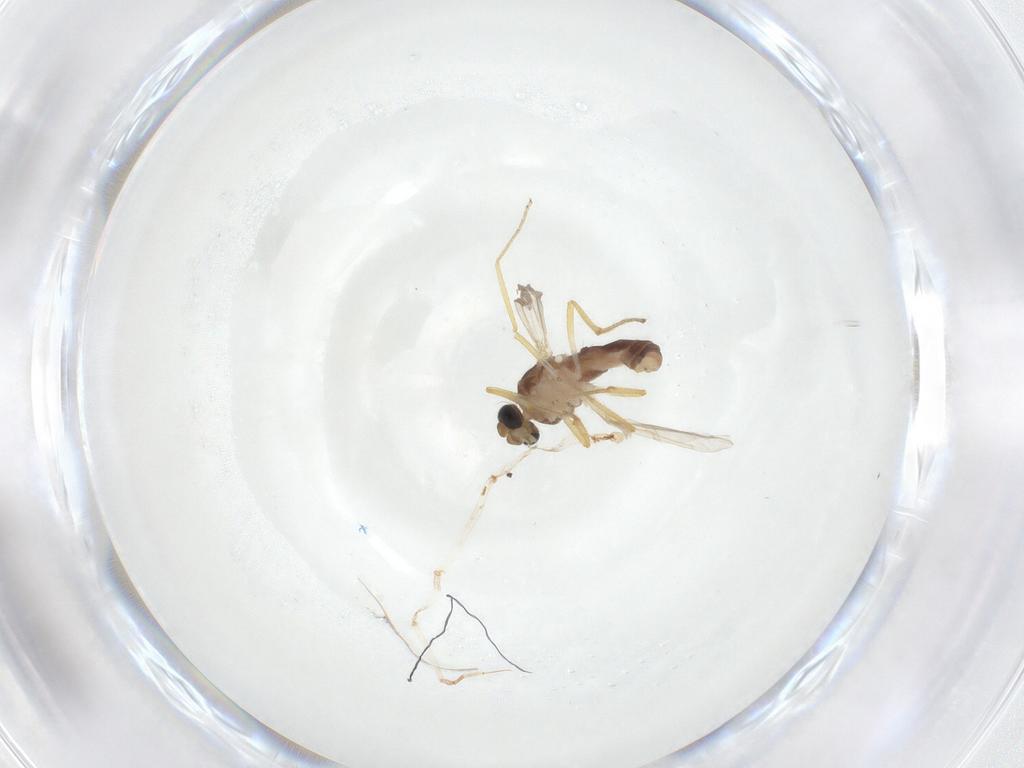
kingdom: Animalia
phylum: Arthropoda
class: Insecta
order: Diptera
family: Ceratopogonidae
